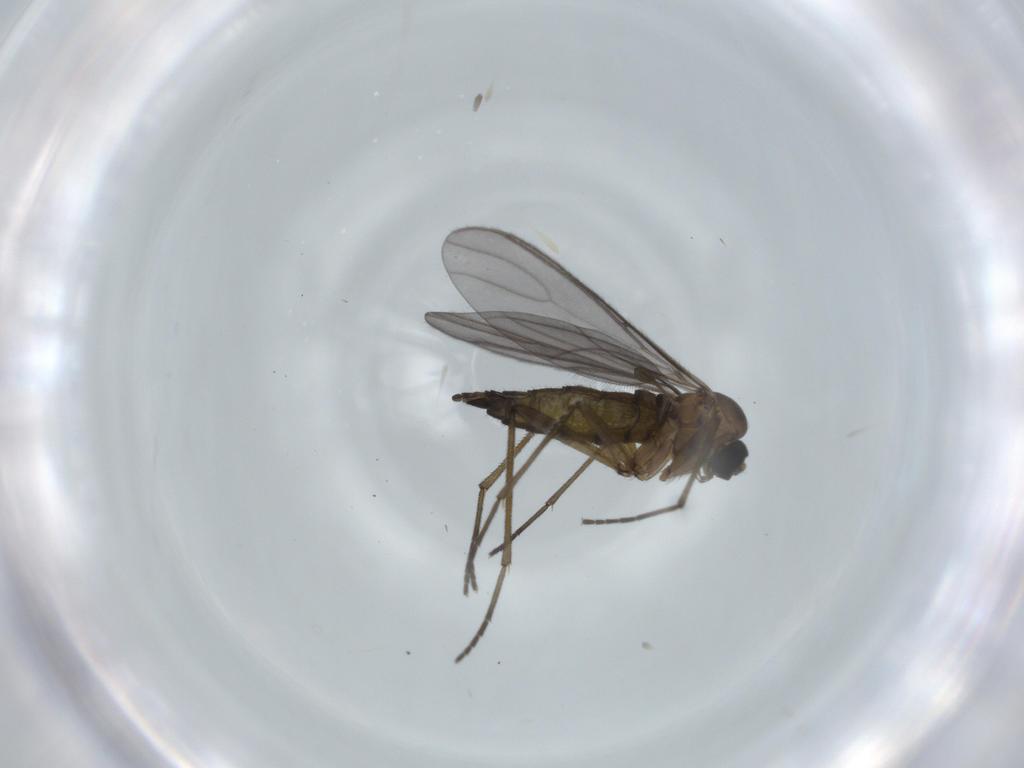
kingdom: Animalia
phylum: Arthropoda
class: Insecta
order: Diptera
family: Sciaridae
